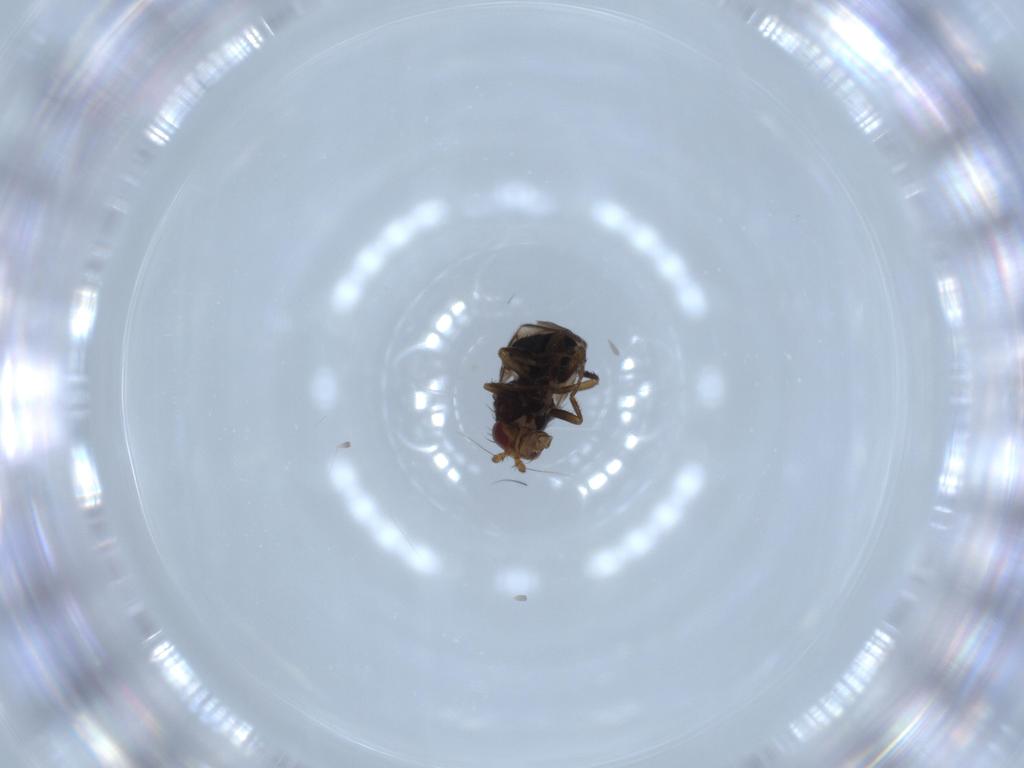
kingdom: Animalia
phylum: Arthropoda
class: Insecta
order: Diptera
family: Sphaeroceridae
